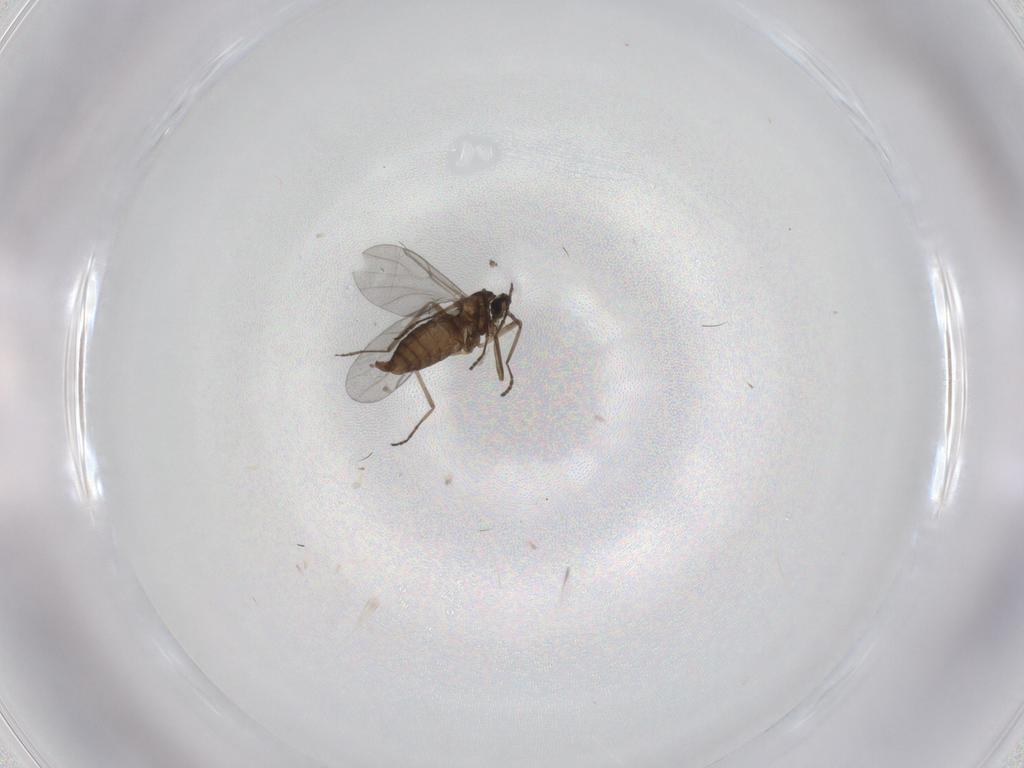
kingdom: Animalia
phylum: Arthropoda
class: Insecta
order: Diptera
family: Cecidomyiidae
